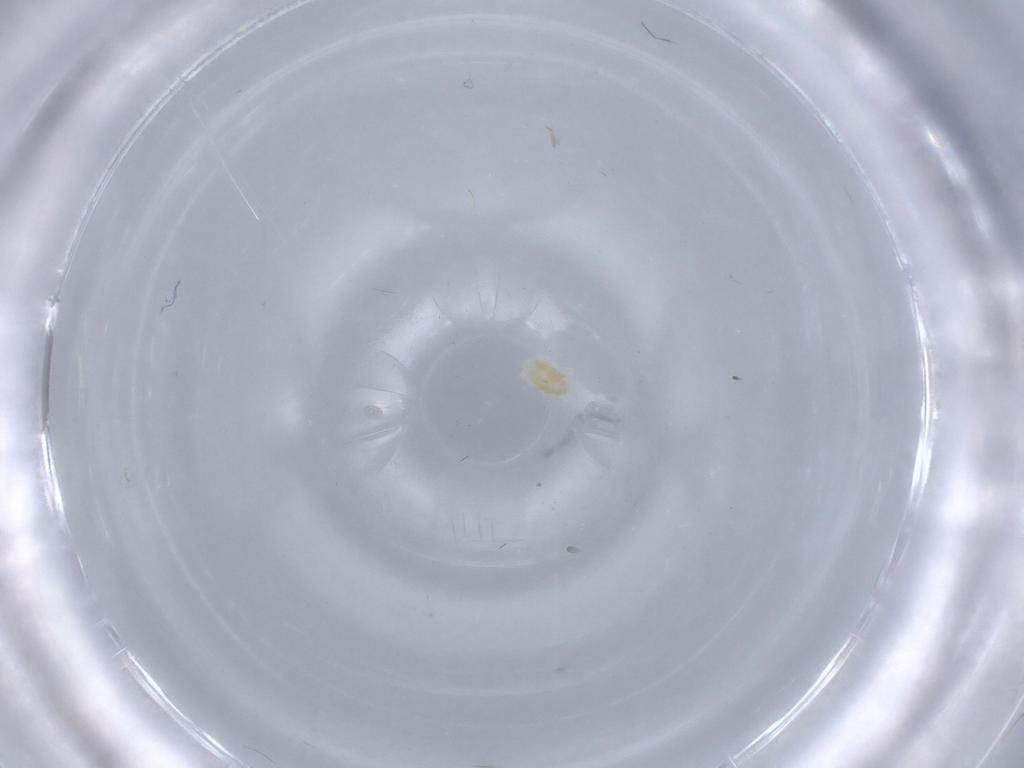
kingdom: Animalia
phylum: Arthropoda
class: Arachnida
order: Trombidiformes
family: Eupodidae
